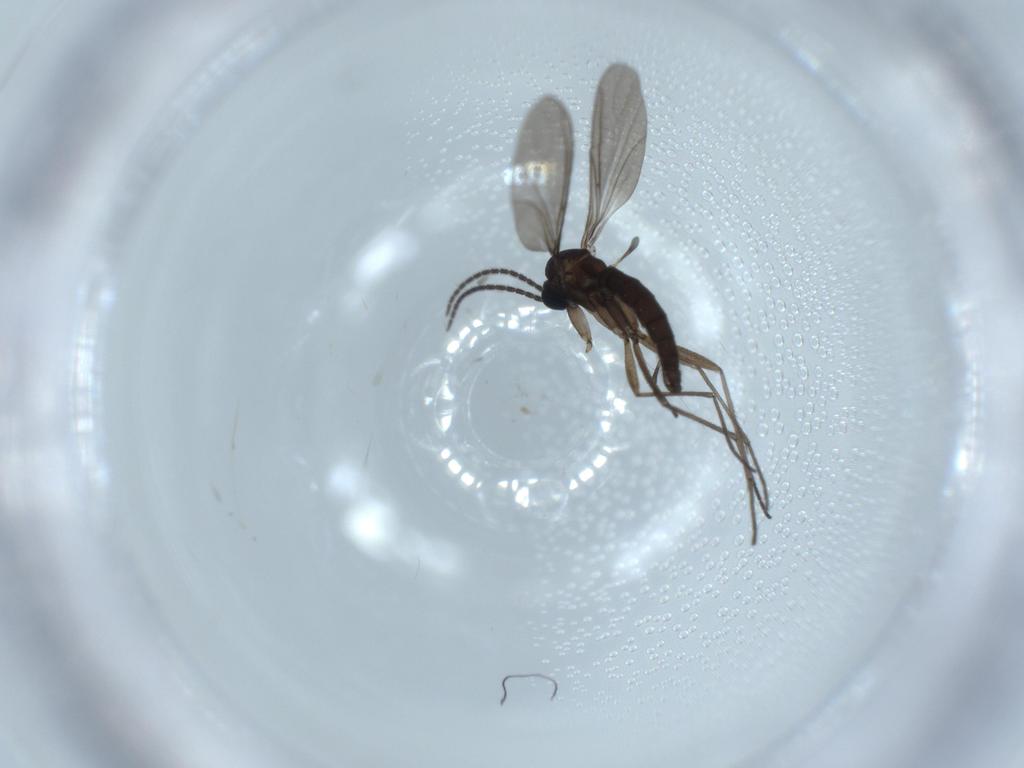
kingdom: Animalia
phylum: Arthropoda
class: Insecta
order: Diptera
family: Sciaridae
